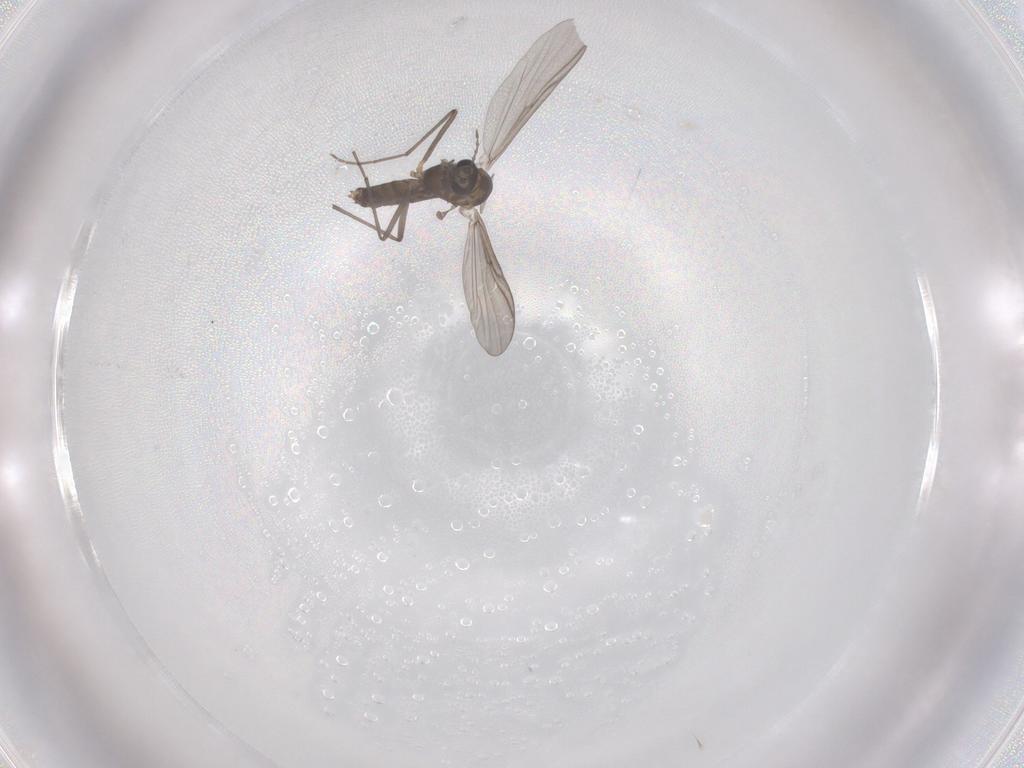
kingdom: Animalia
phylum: Arthropoda
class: Insecta
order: Diptera
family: Chironomidae
